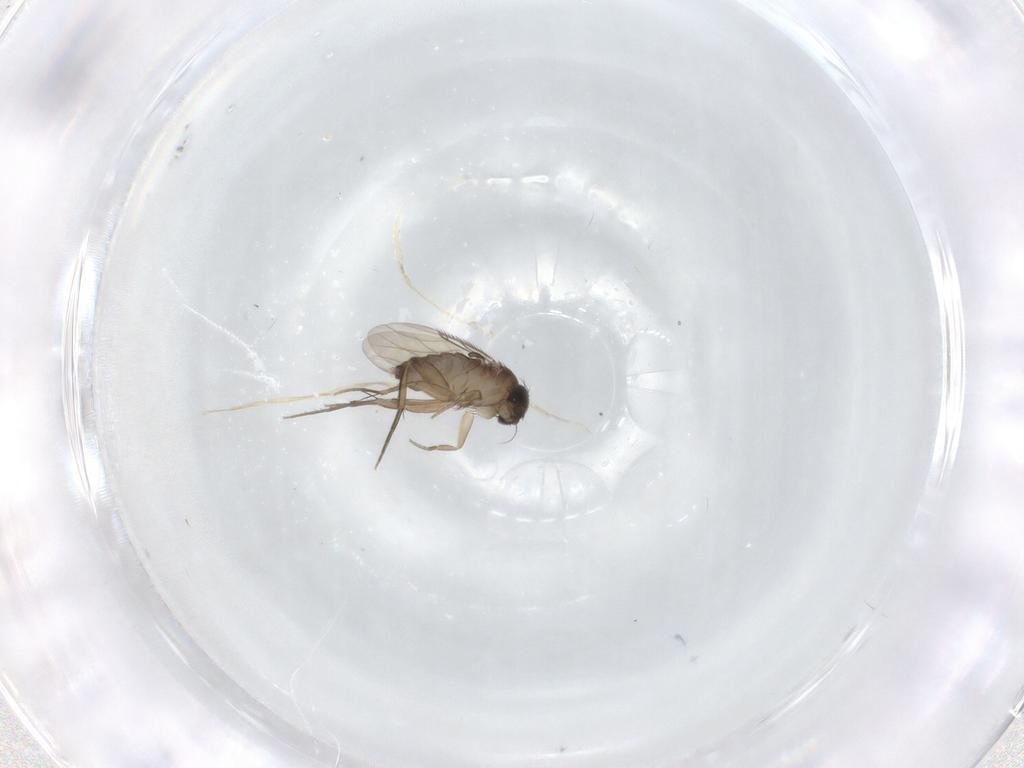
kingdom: Animalia
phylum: Arthropoda
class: Insecta
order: Diptera
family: Phoridae
